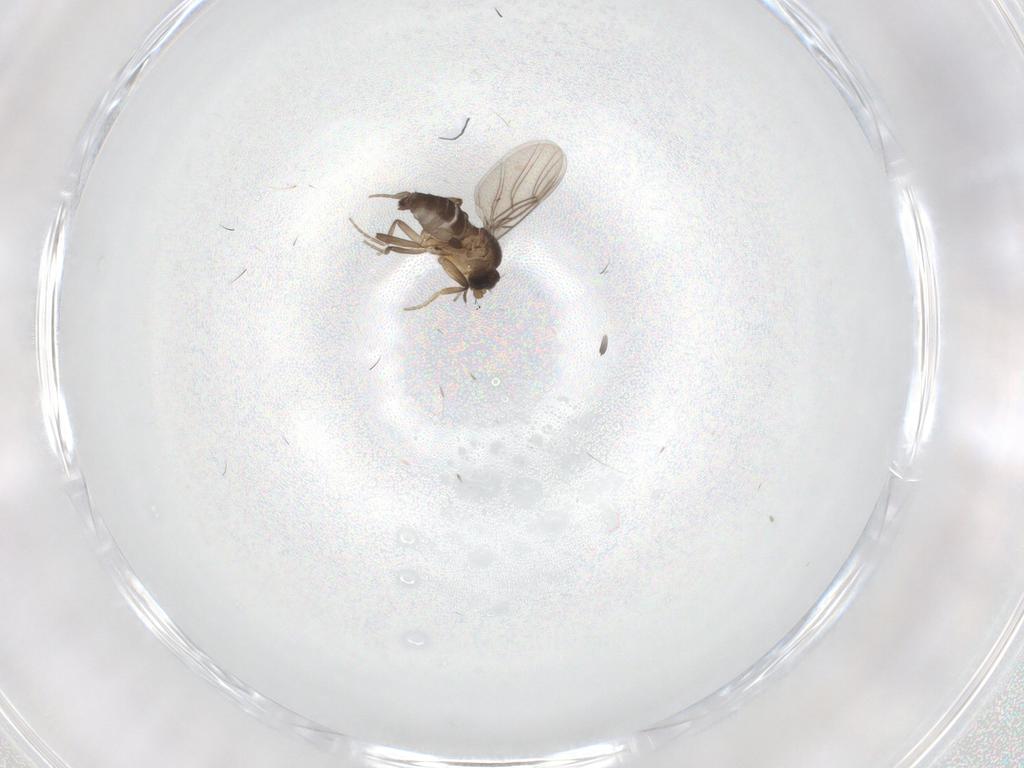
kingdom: Animalia
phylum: Arthropoda
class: Insecta
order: Diptera
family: Phoridae
